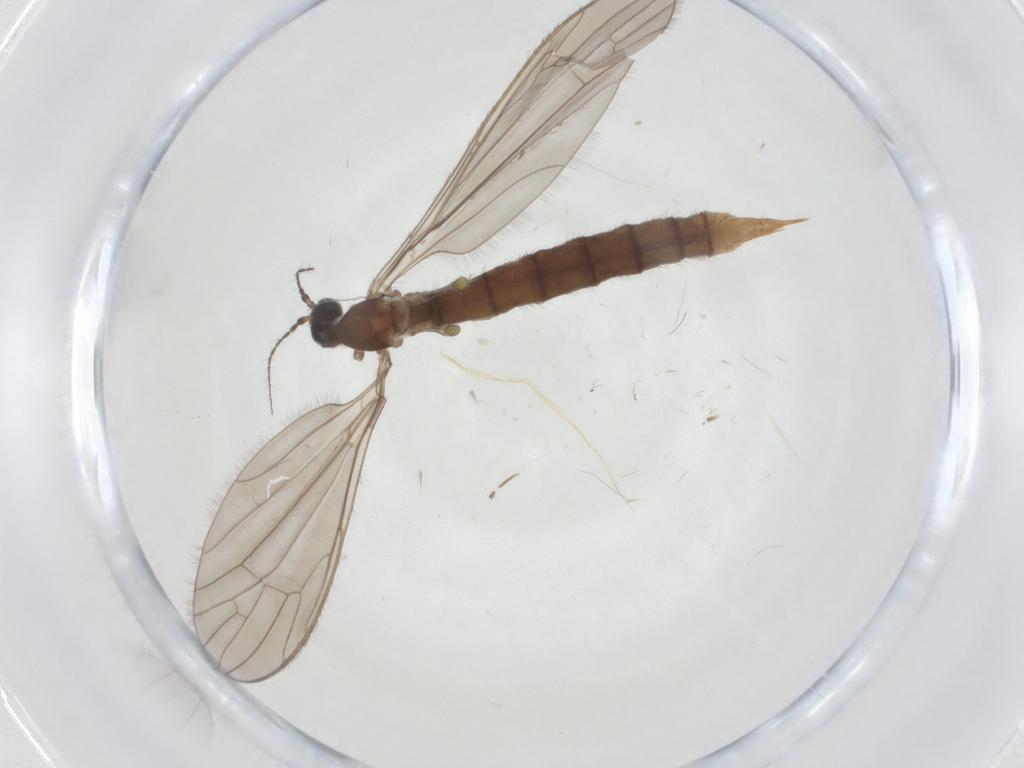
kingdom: Animalia
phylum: Arthropoda
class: Insecta
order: Diptera
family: Limoniidae
